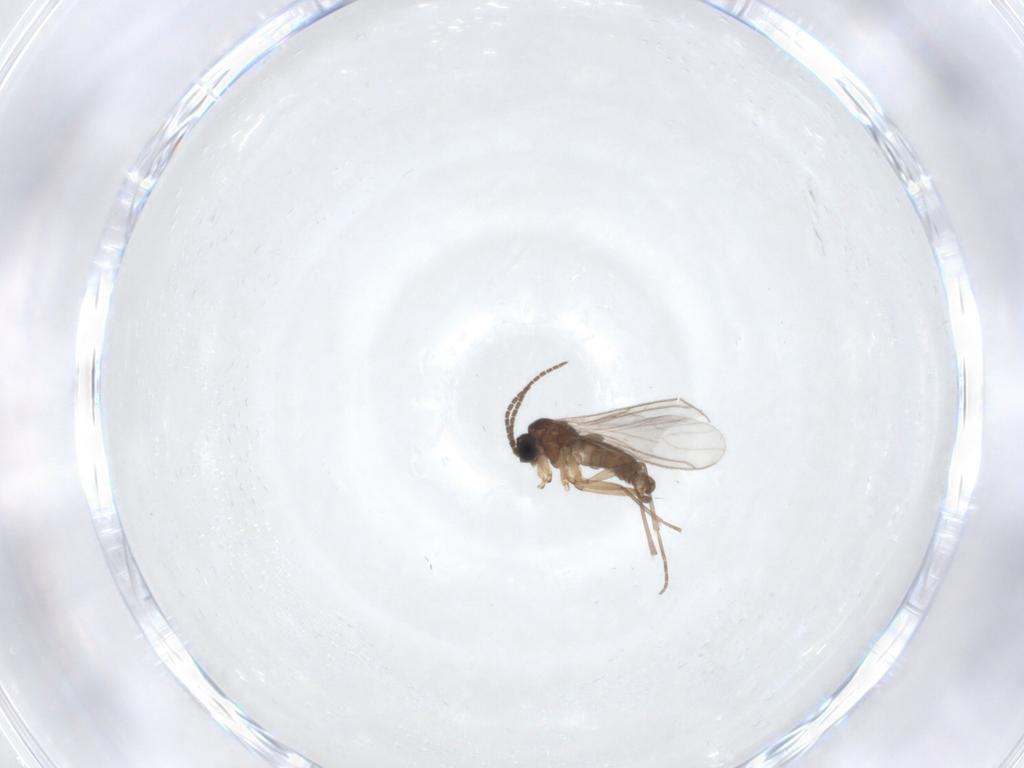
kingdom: Animalia
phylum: Arthropoda
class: Insecta
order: Diptera
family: Sciaridae
